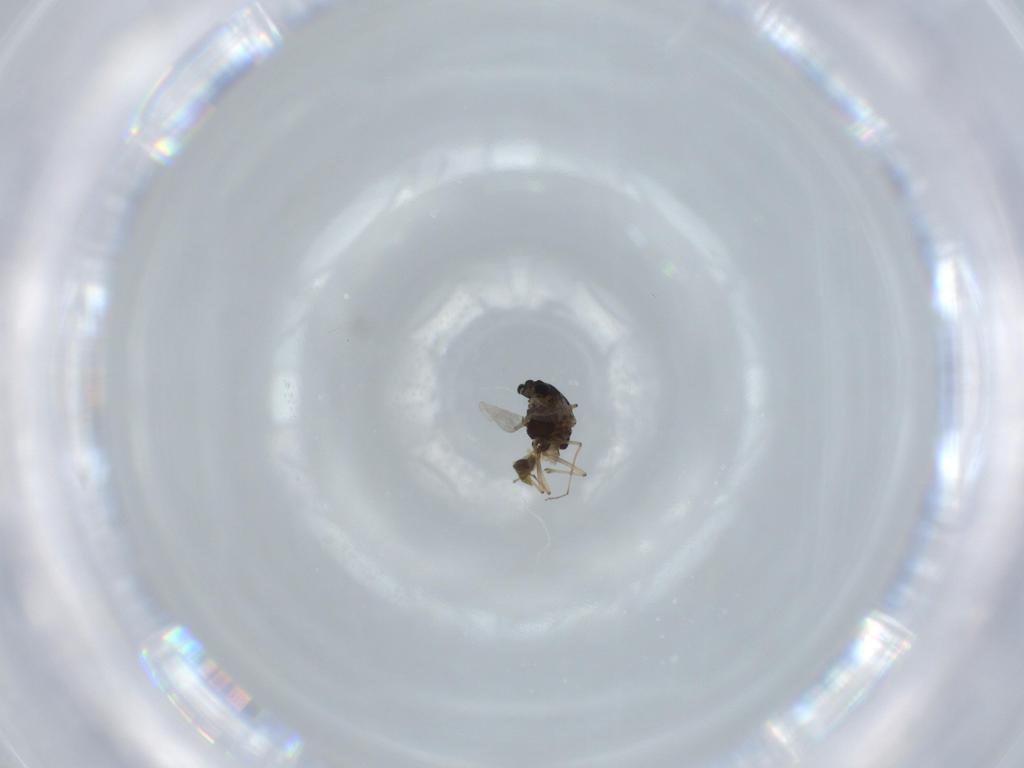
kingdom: Animalia
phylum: Arthropoda
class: Insecta
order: Diptera
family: Chironomidae
